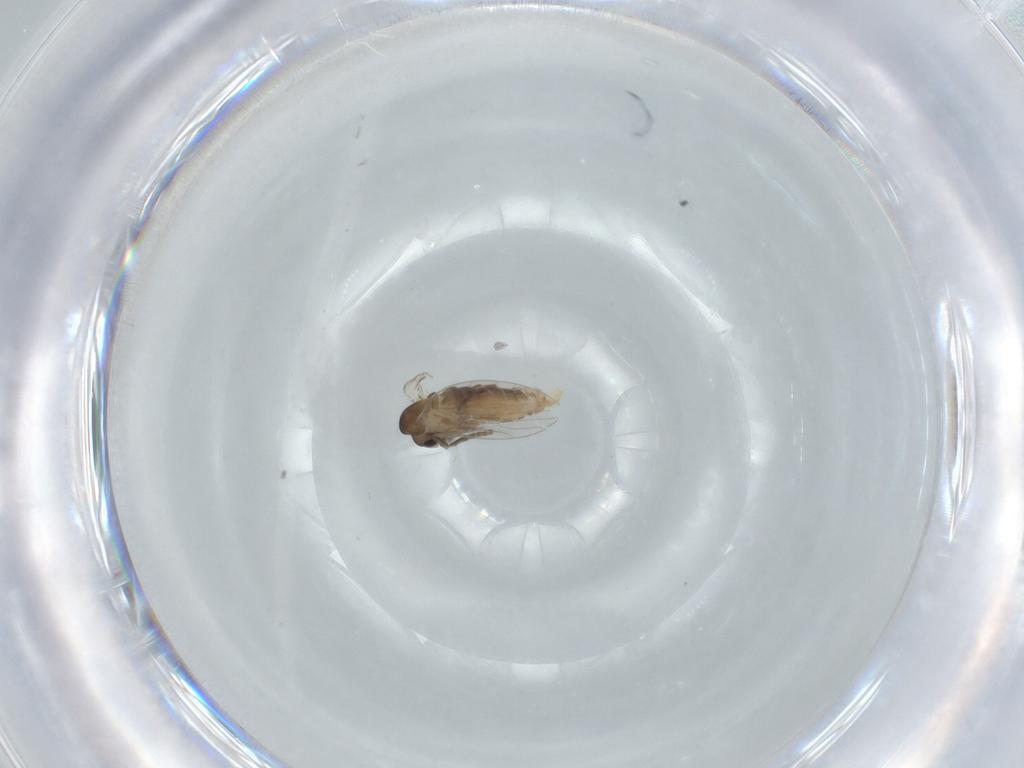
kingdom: Animalia
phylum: Arthropoda
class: Insecta
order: Diptera
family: Psychodidae
